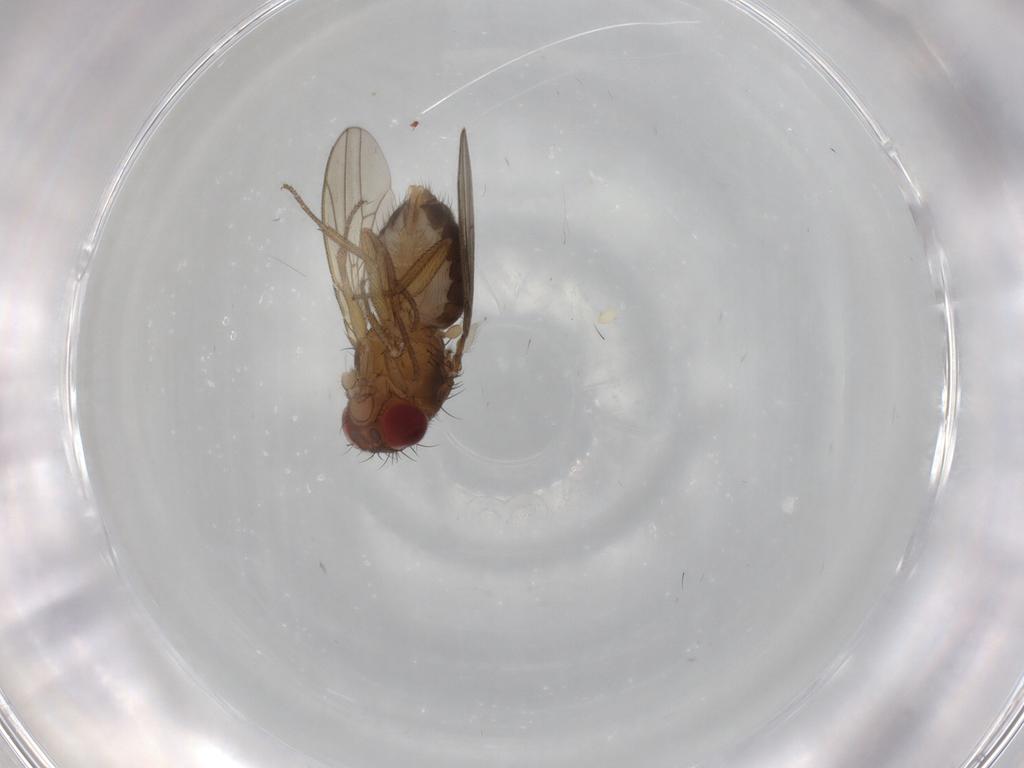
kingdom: Animalia
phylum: Arthropoda
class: Insecta
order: Diptera
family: Drosophilidae
